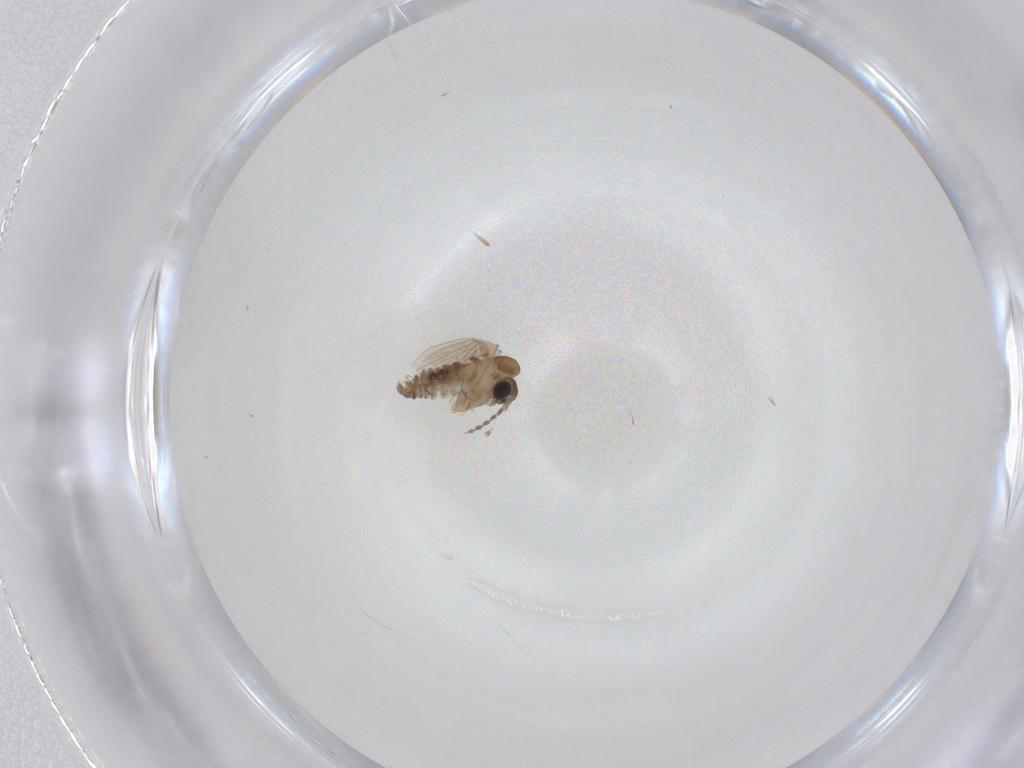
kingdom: Animalia
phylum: Arthropoda
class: Insecta
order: Diptera
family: Psychodidae
